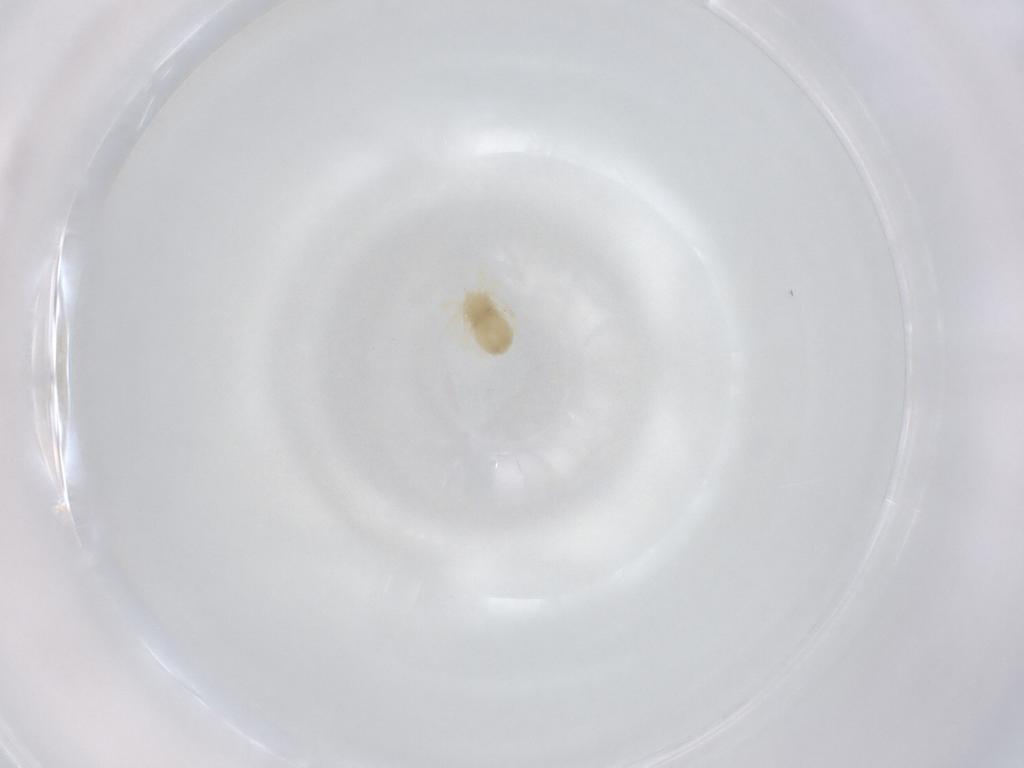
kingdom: Animalia
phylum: Arthropoda
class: Arachnida
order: Trombidiformes
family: Anystidae
